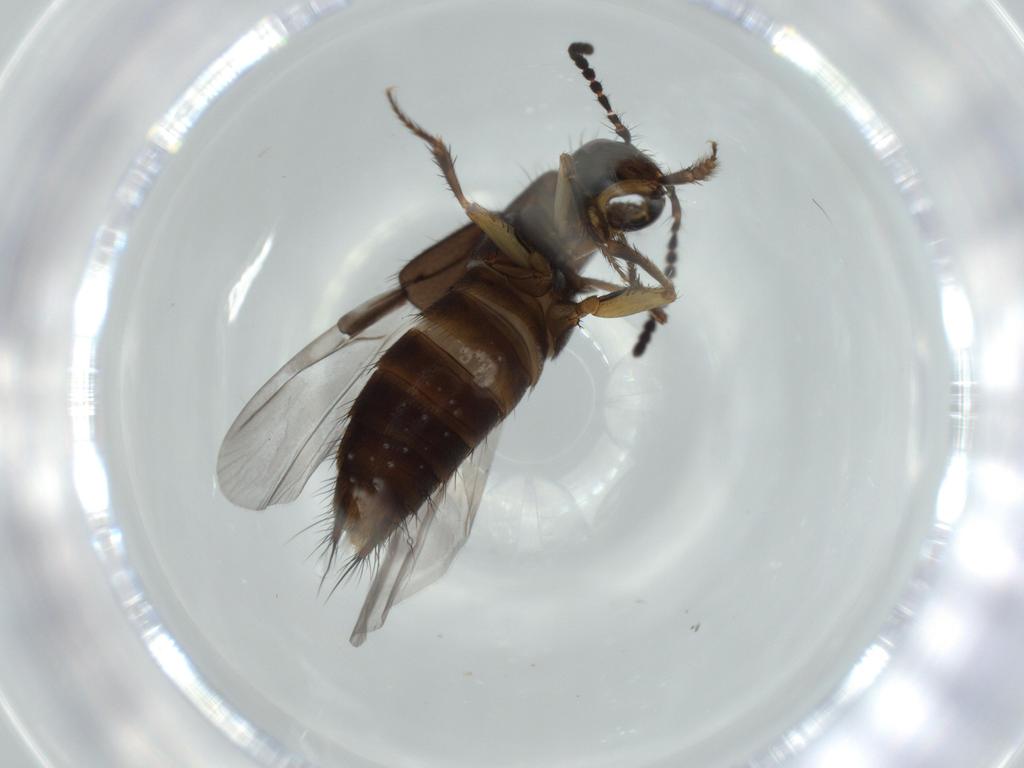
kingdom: Animalia
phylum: Arthropoda
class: Insecta
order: Coleoptera
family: Staphylinidae
